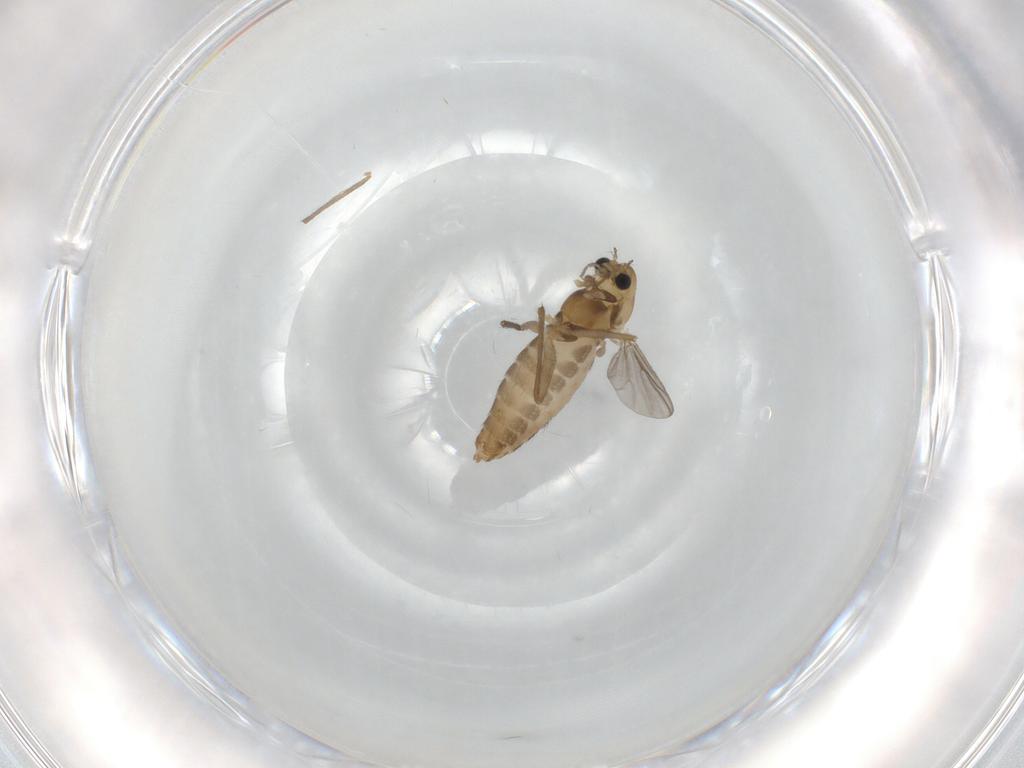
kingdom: Animalia
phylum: Arthropoda
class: Insecta
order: Diptera
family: Chironomidae
